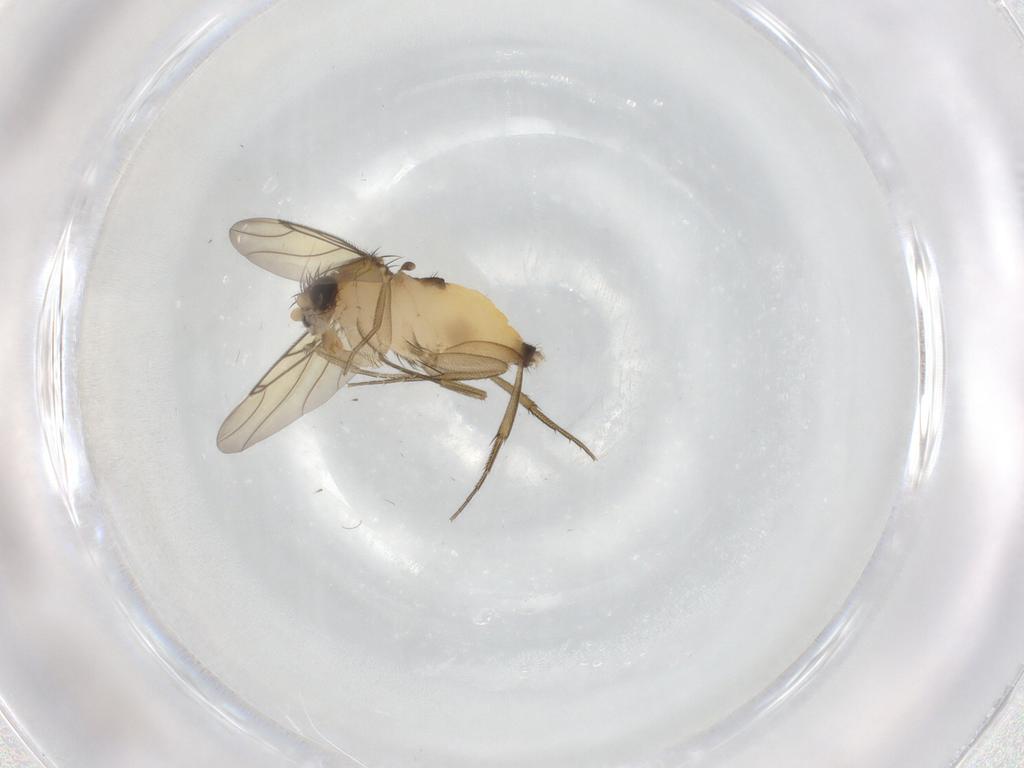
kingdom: Animalia
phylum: Arthropoda
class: Insecta
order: Diptera
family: Phoridae
